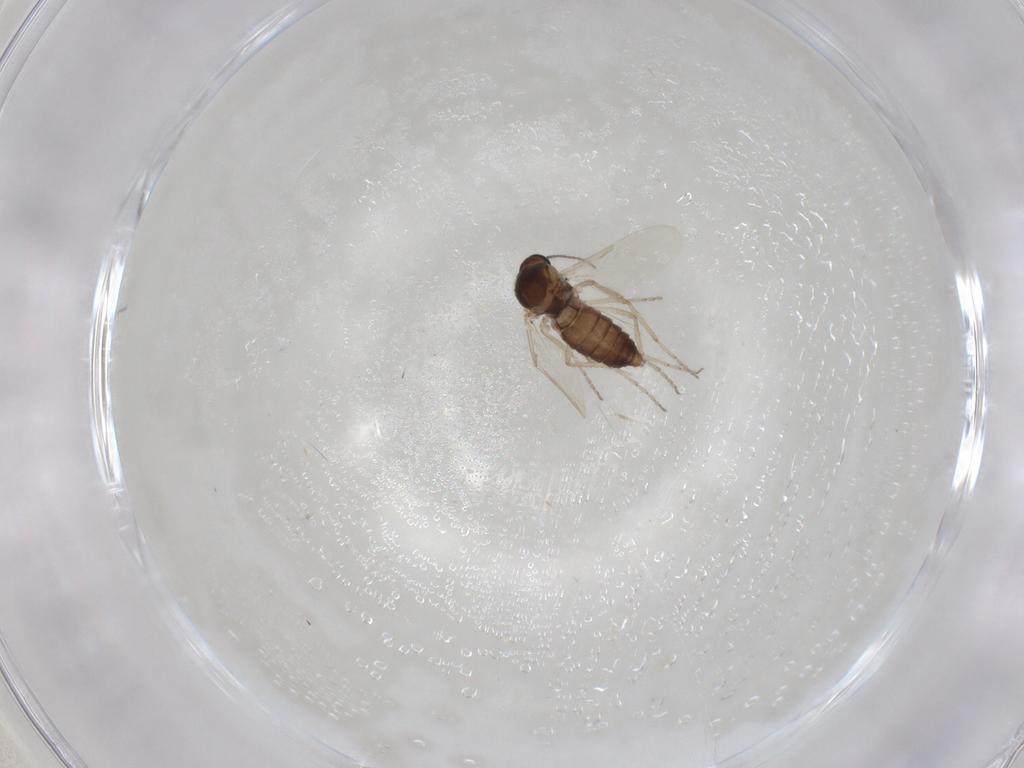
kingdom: Animalia
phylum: Arthropoda
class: Insecta
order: Diptera
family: Ceratopogonidae
